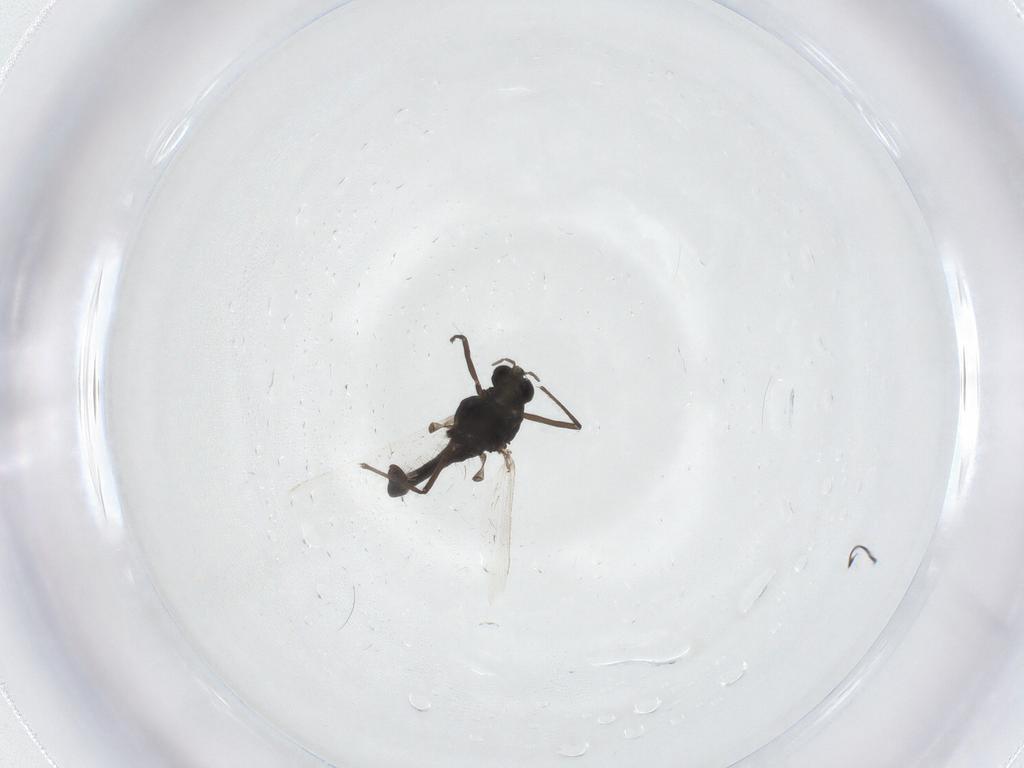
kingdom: Animalia
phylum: Arthropoda
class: Insecta
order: Diptera
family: Chironomidae
